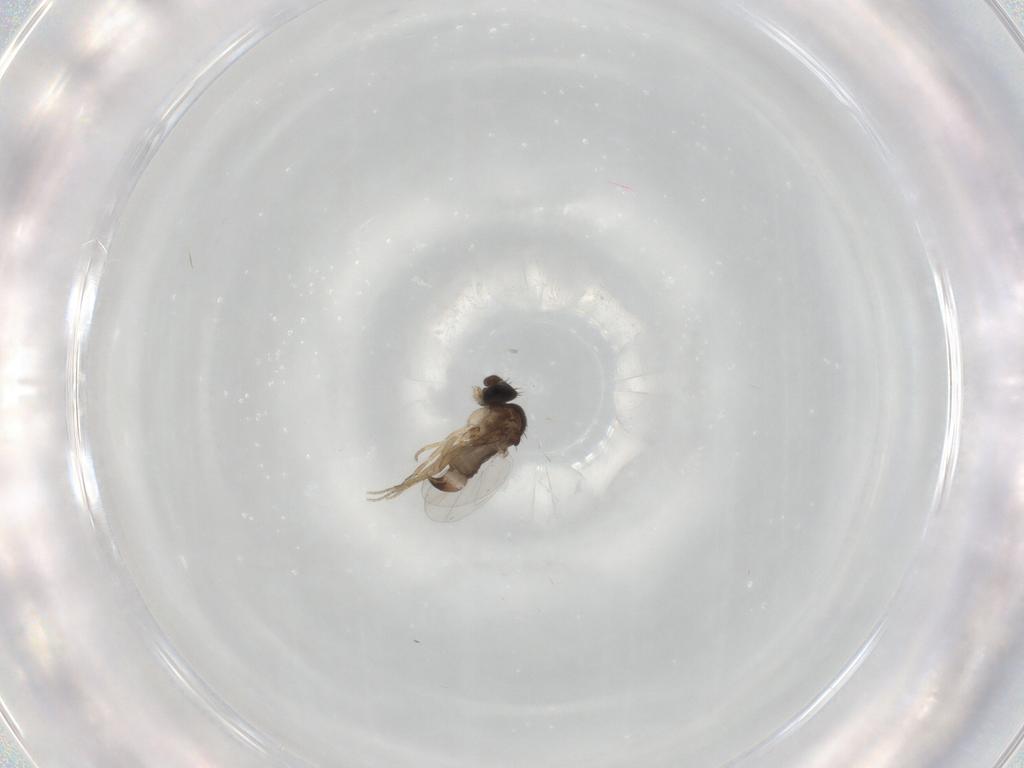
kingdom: Animalia
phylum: Arthropoda
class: Insecta
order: Diptera
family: Phoridae
